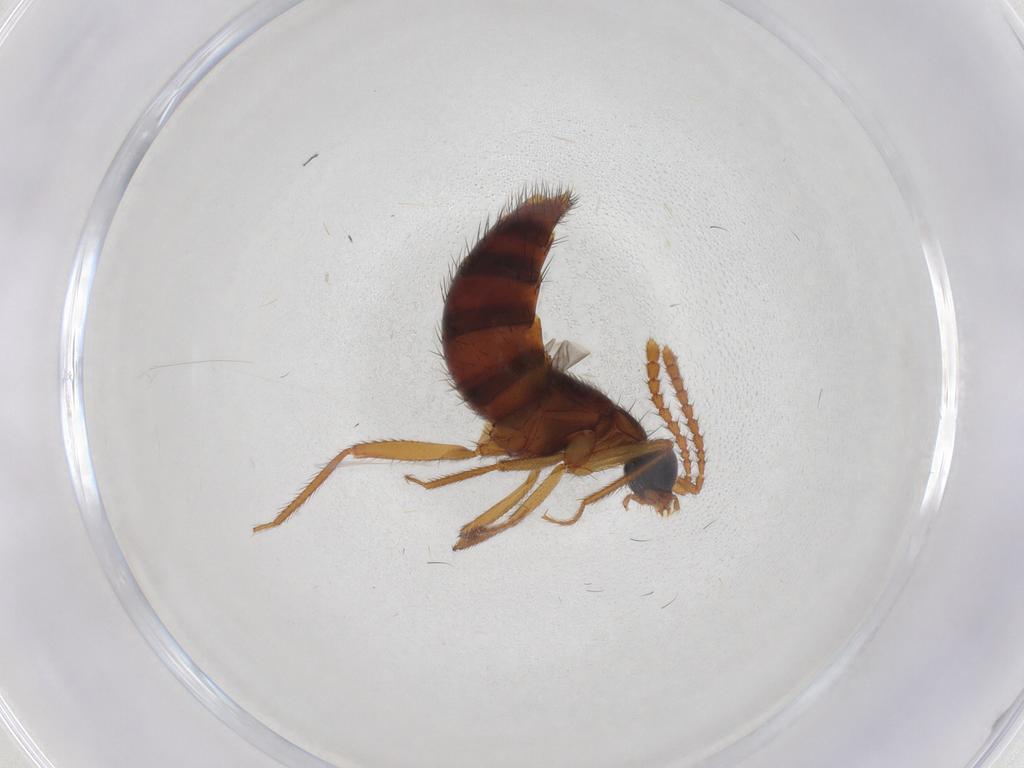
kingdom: Animalia
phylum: Arthropoda
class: Insecta
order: Coleoptera
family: Staphylinidae
